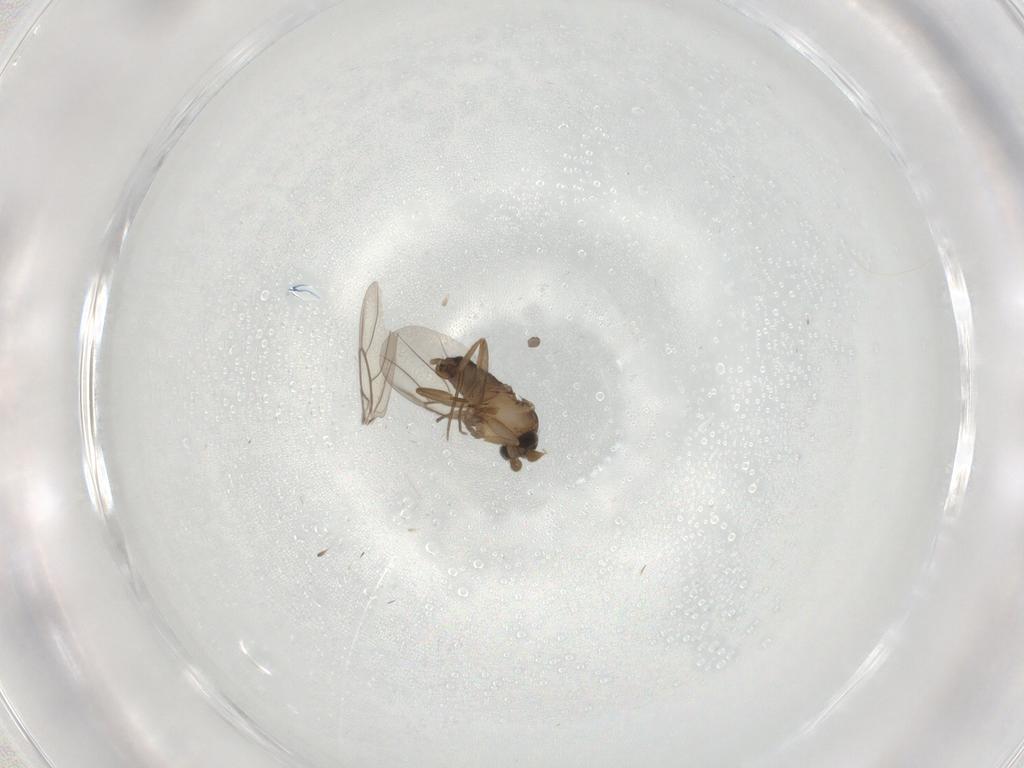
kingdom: Animalia
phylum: Arthropoda
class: Insecta
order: Diptera
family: Phoridae
